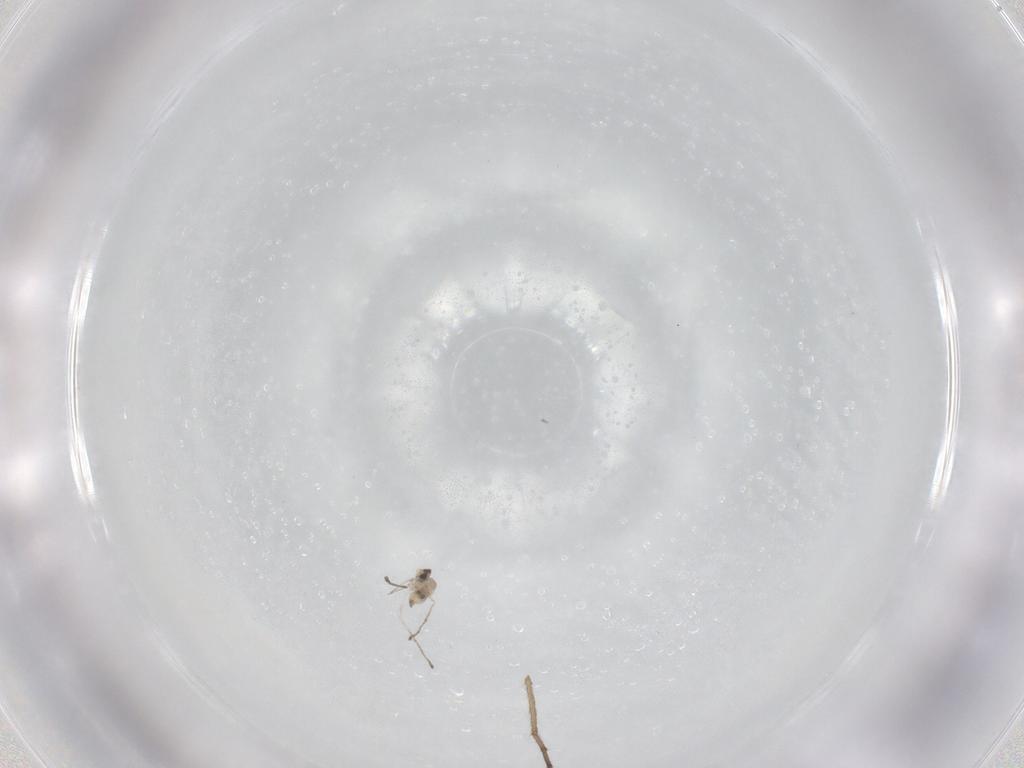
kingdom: Animalia
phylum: Arthropoda
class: Insecta
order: Diptera
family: Cecidomyiidae
